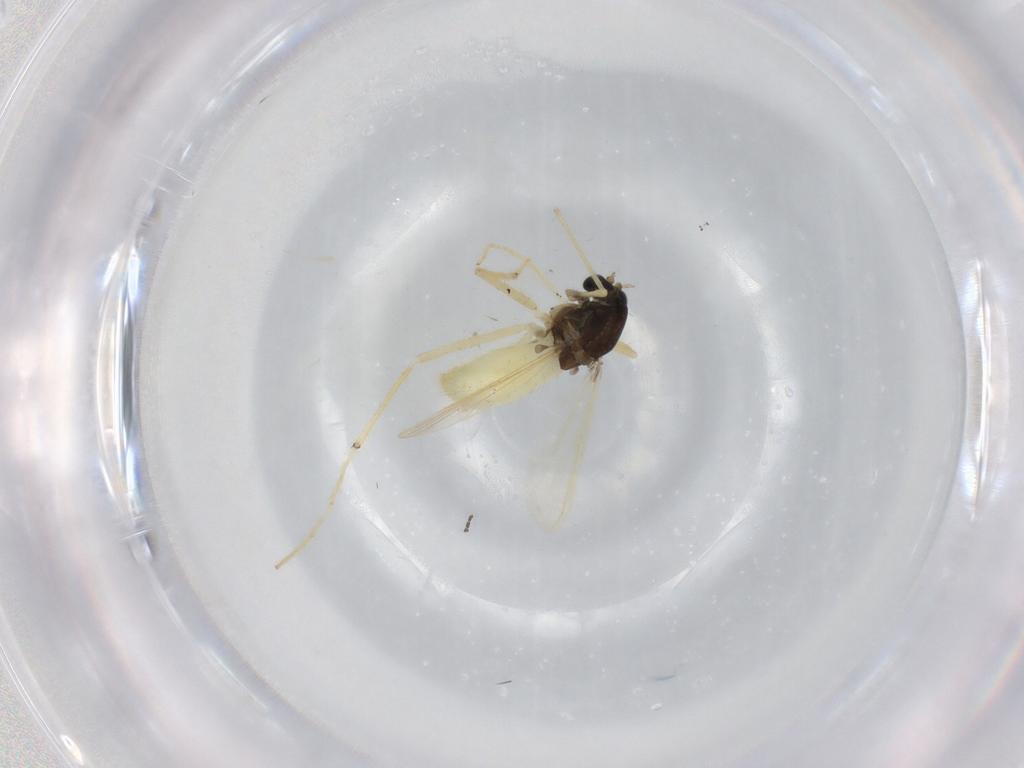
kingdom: Animalia
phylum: Arthropoda
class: Insecta
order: Diptera
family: Chironomidae
